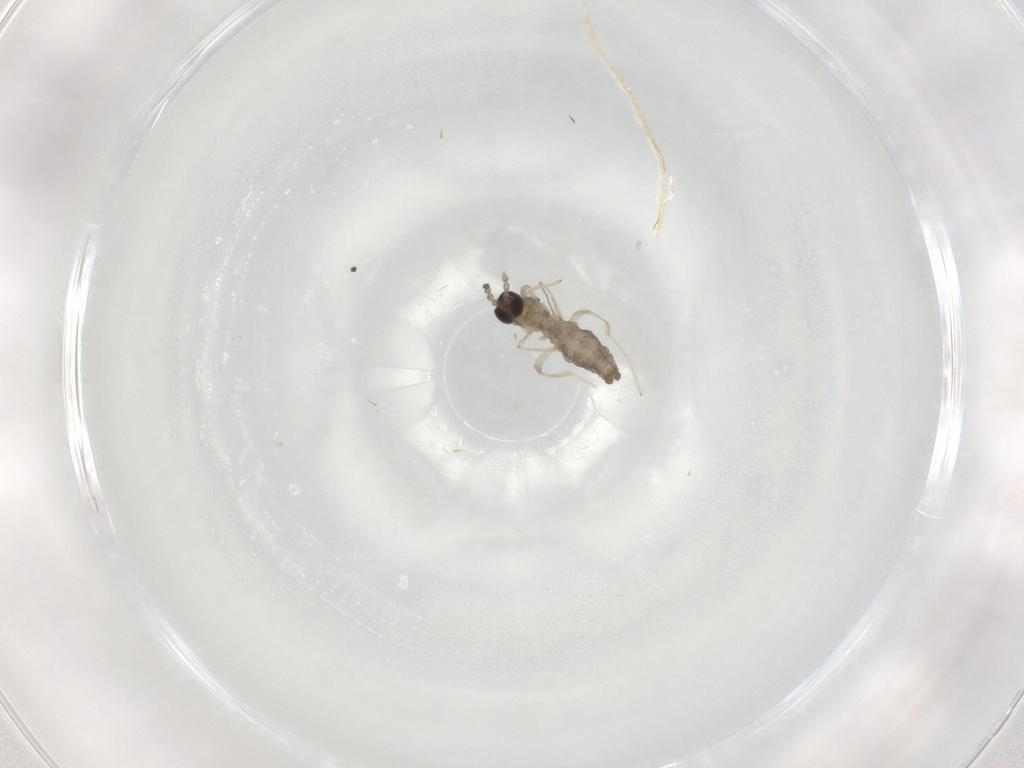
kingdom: Animalia
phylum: Arthropoda
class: Insecta
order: Diptera
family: Cecidomyiidae
